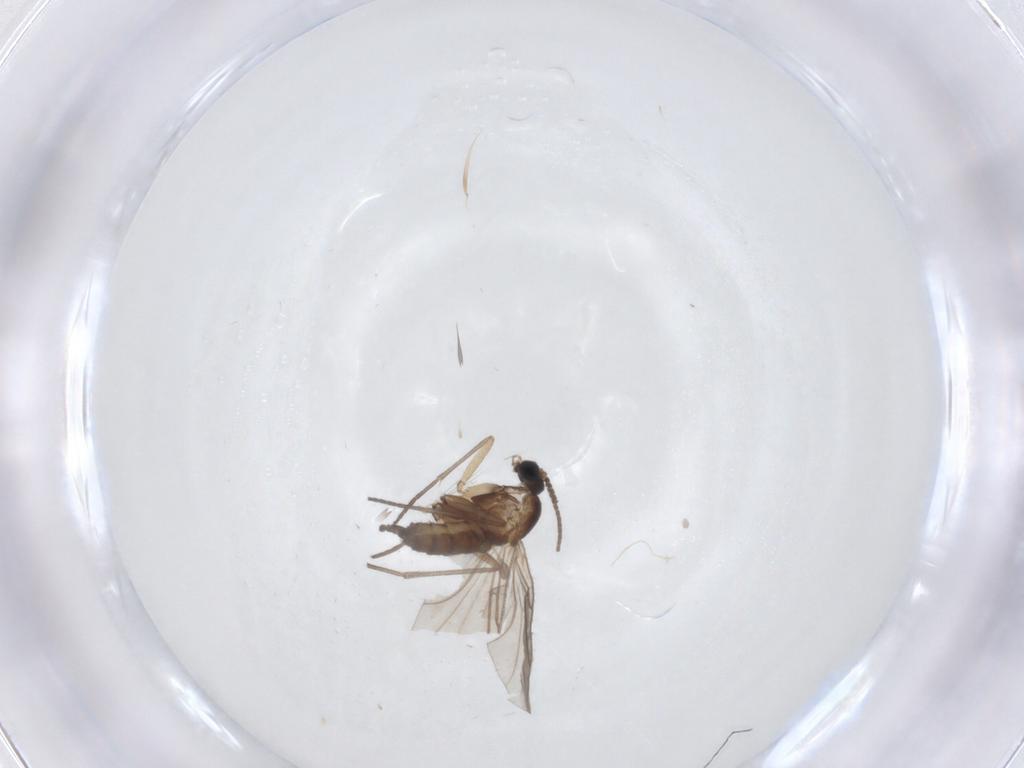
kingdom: Animalia
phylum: Arthropoda
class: Insecta
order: Diptera
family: Sciaridae
